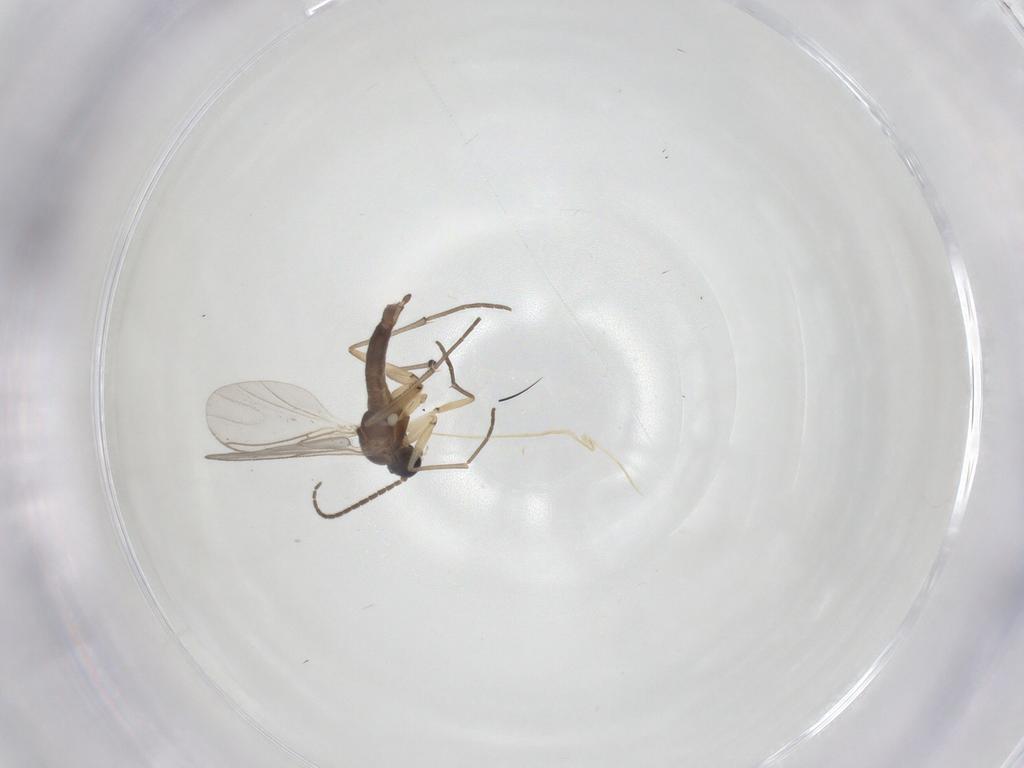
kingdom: Animalia
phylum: Arthropoda
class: Insecta
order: Diptera
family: Sciaridae
